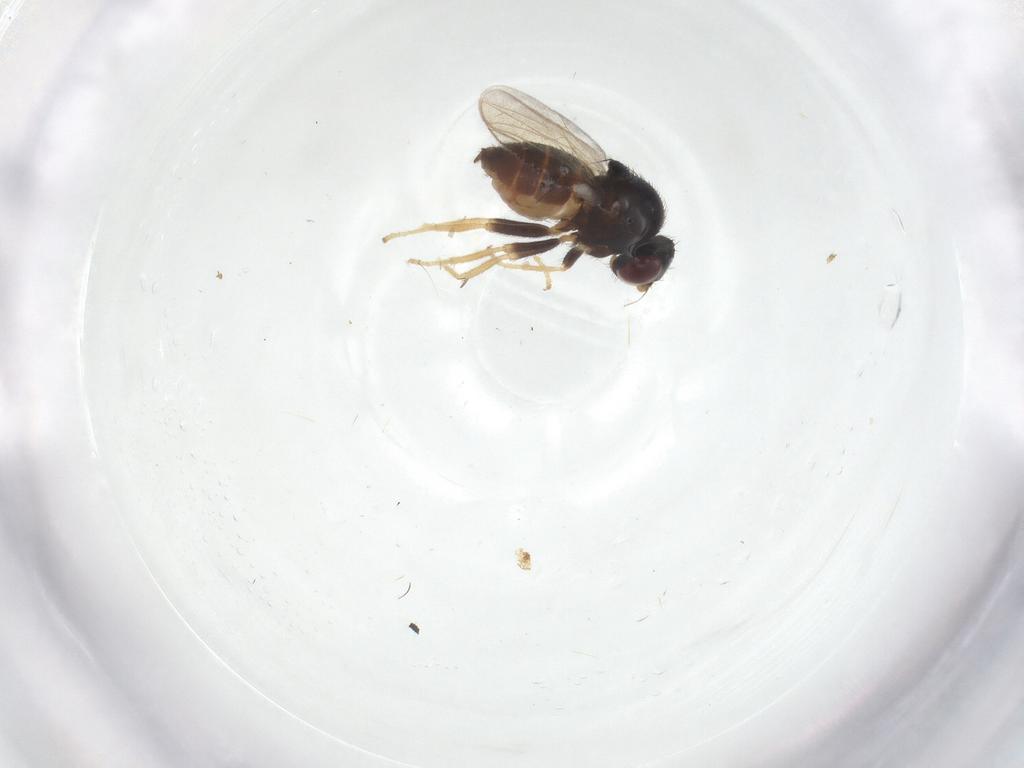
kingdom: Animalia
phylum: Arthropoda
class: Insecta
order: Diptera
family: Chloropidae
